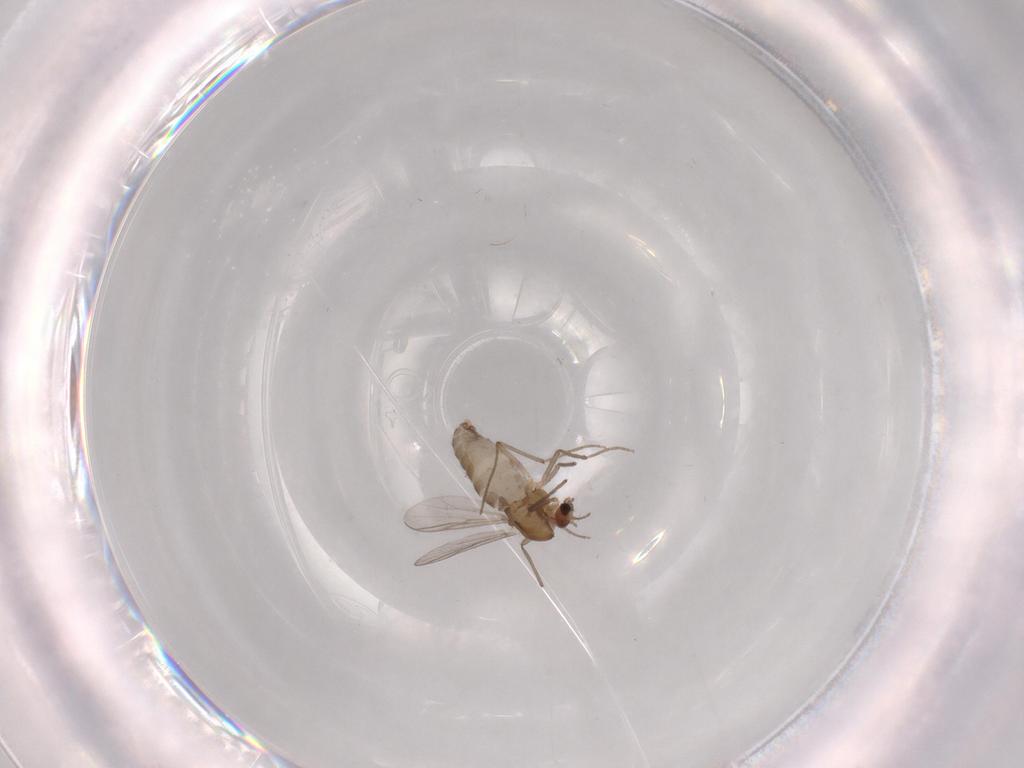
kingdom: Animalia
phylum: Arthropoda
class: Insecta
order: Diptera
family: Chironomidae
